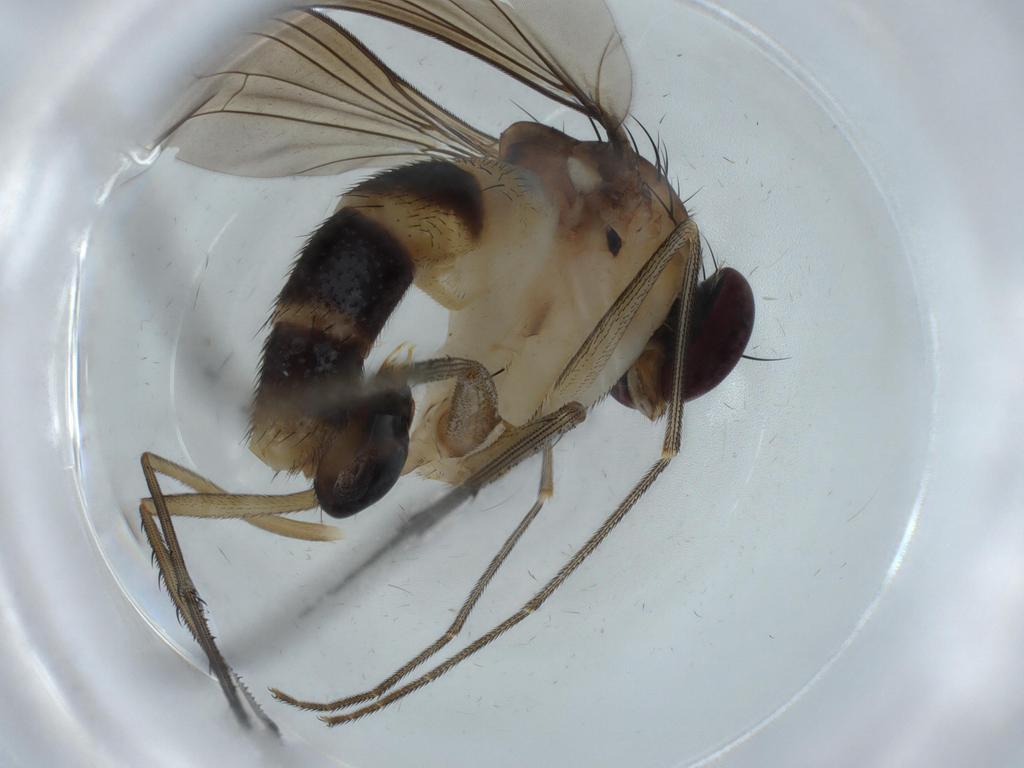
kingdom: Animalia
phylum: Arthropoda
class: Insecta
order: Diptera
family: Dolichopodidae
